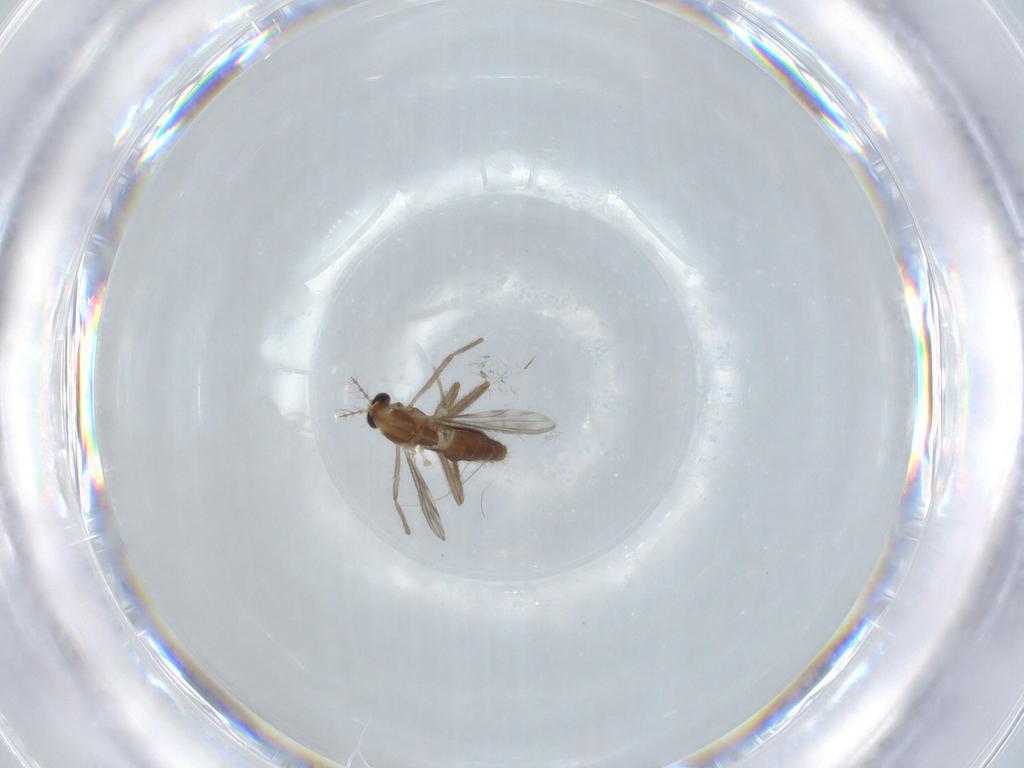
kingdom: Animalia
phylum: Arthropoda
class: Insecta
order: Diptera
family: Chironomidae
